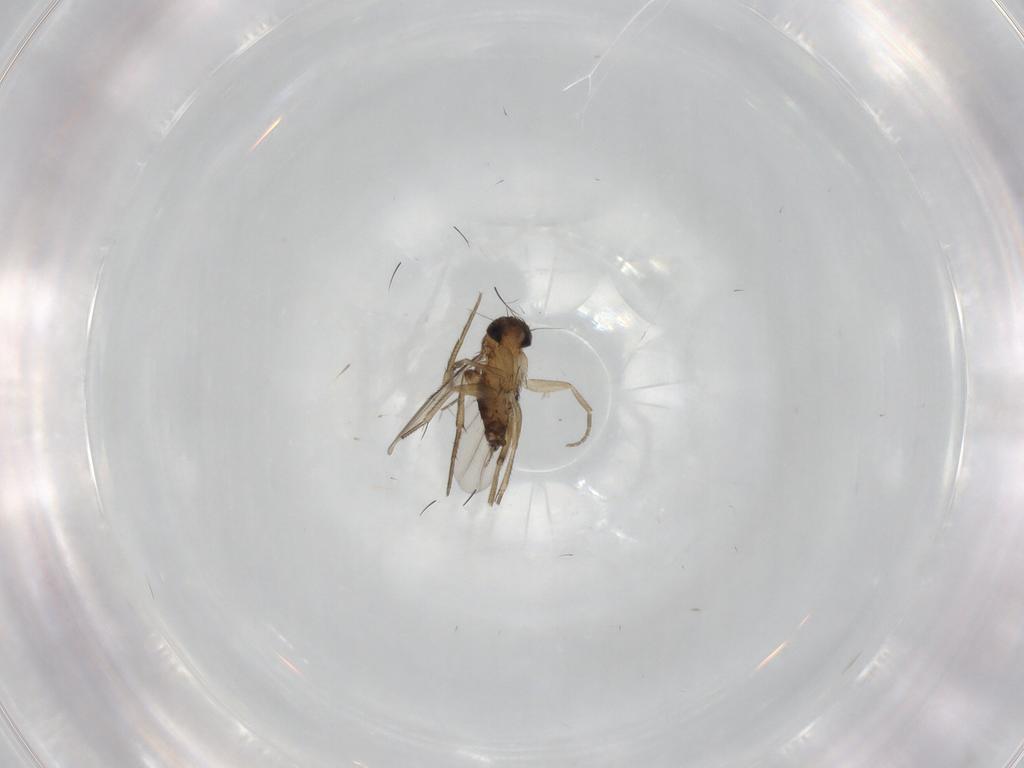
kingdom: Animalia
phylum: Arthropoda
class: Insecta
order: Diptera
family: Phoridae
